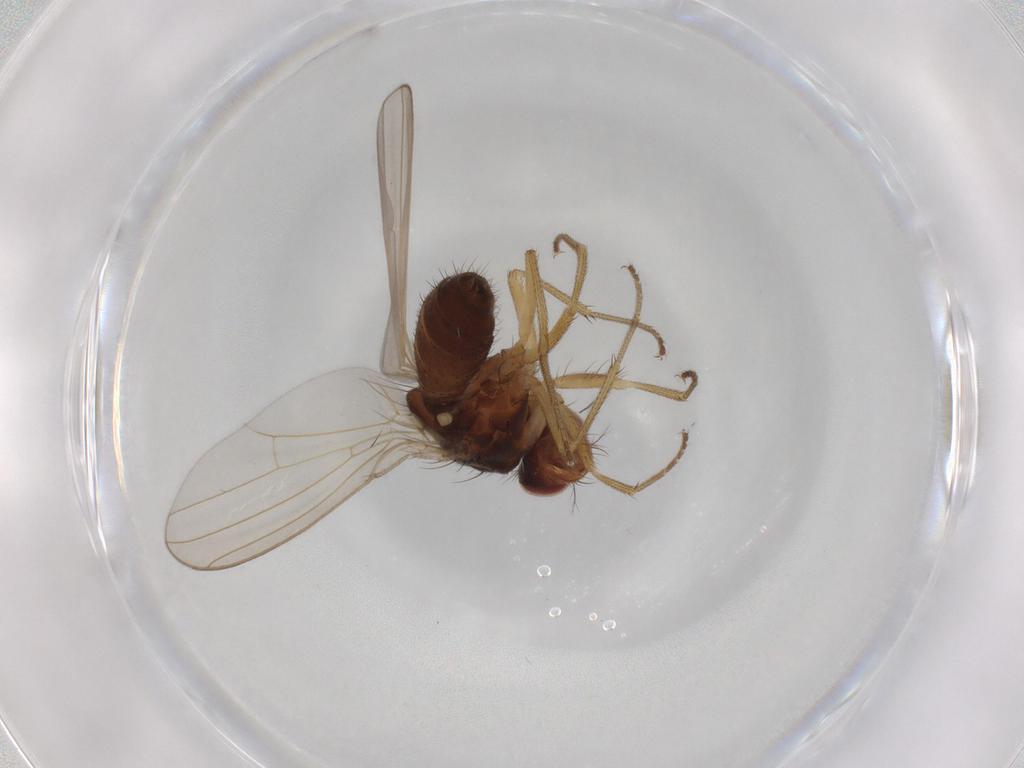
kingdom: Animalia
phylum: Arthropoda
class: Insecta
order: Diptera
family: Drosophilidae
